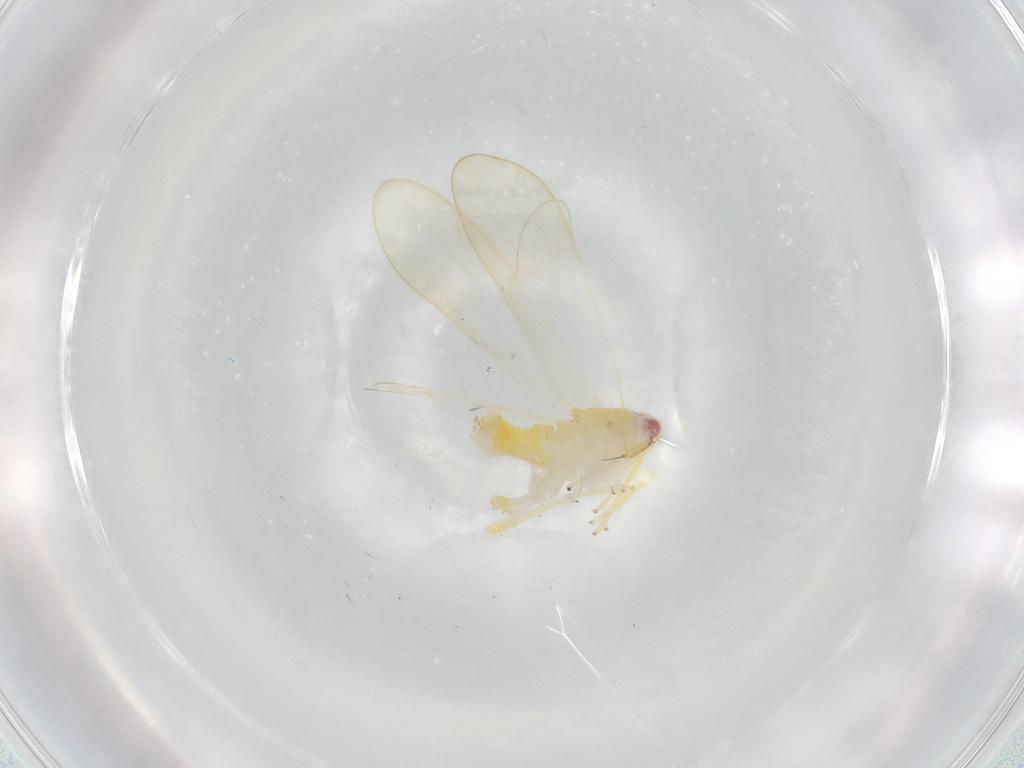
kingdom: Animalia
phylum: Arthropoda
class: Insecta
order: Hemiptera
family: Delphacidae
